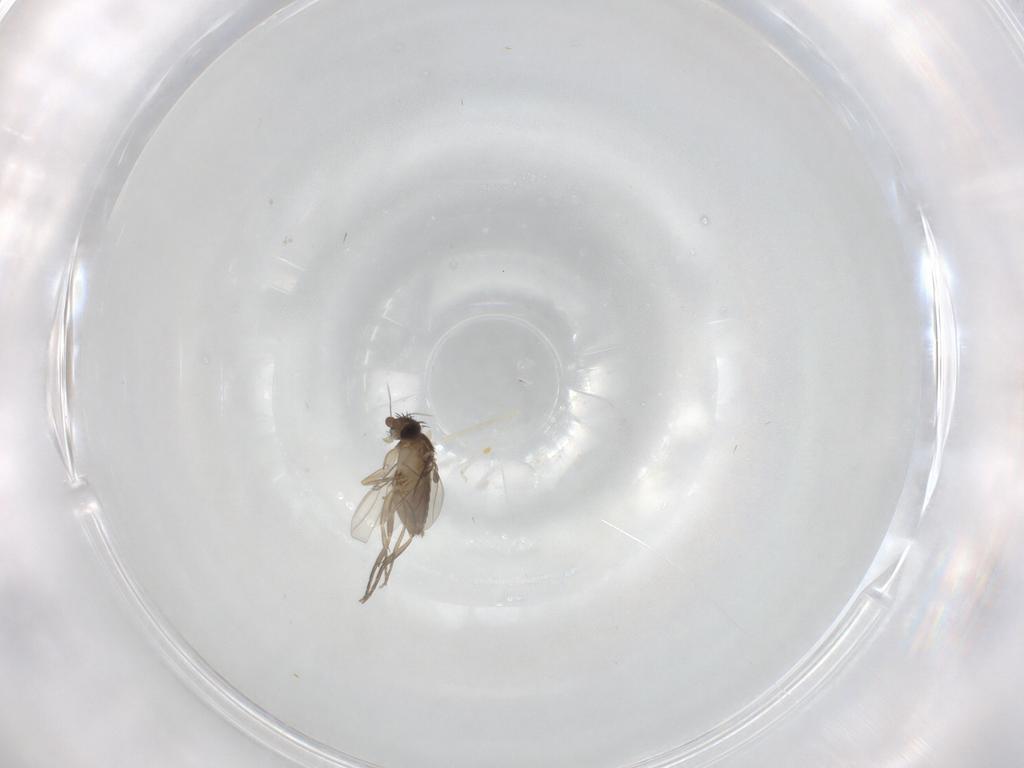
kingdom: Animalia
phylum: Arthropoda
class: Insecta
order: Diptera
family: Phoridae
